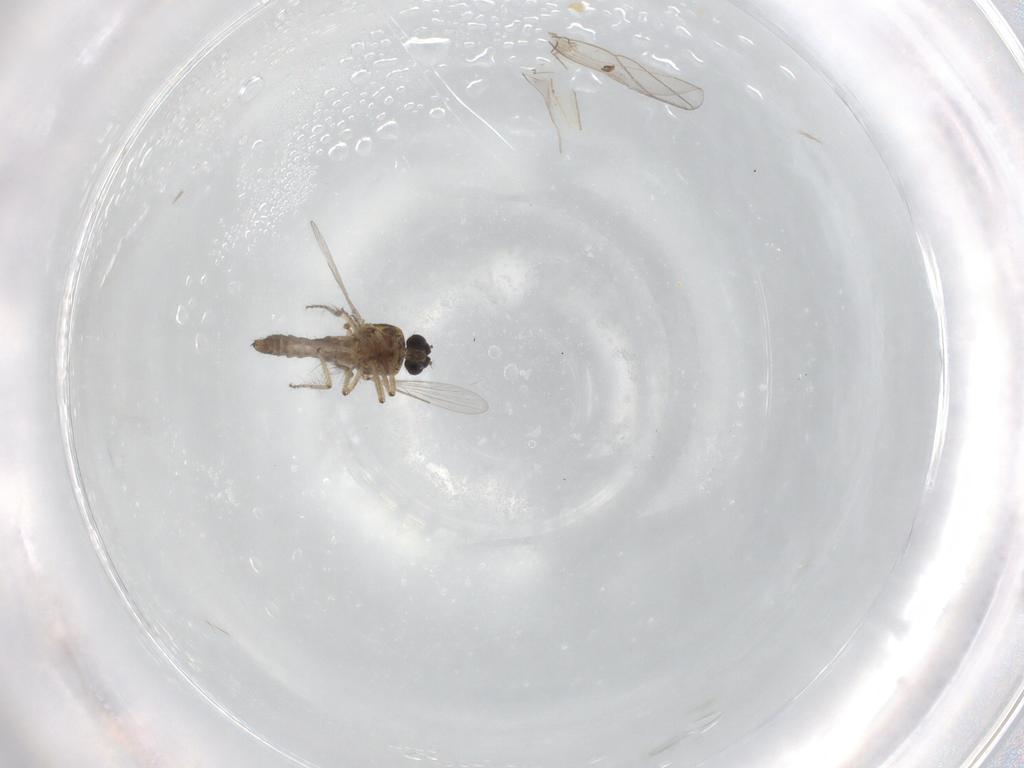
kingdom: Animalia
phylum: Arthropoda
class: Insecta
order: Diptera
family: Ceratopogonidae
